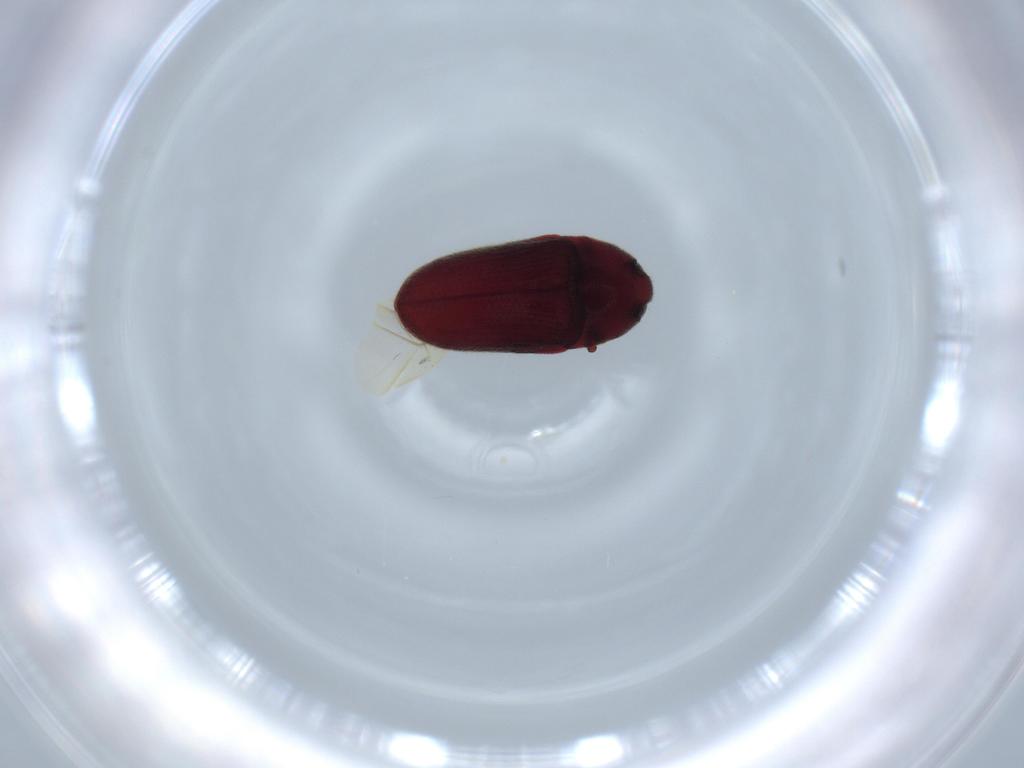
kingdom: Animalia
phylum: Arthropoda
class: Insecta
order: Coleoptera
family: Throscidae
